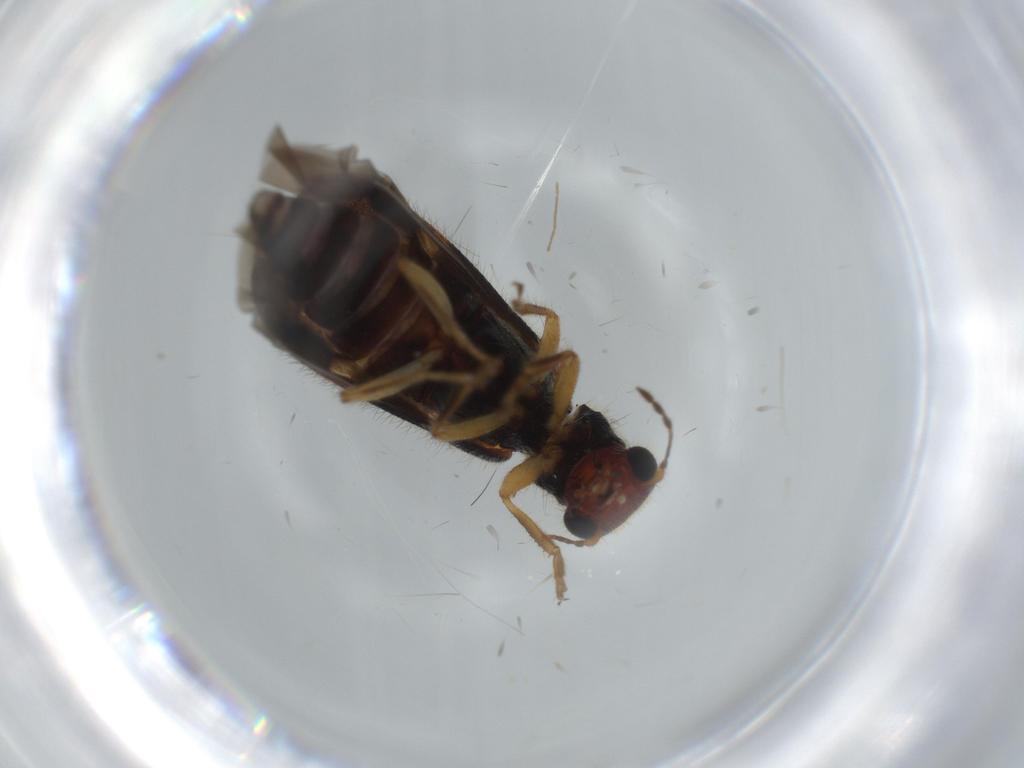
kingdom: Animalia
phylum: Arthropoda
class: Insecta
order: Coleoptera
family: Cleridae
